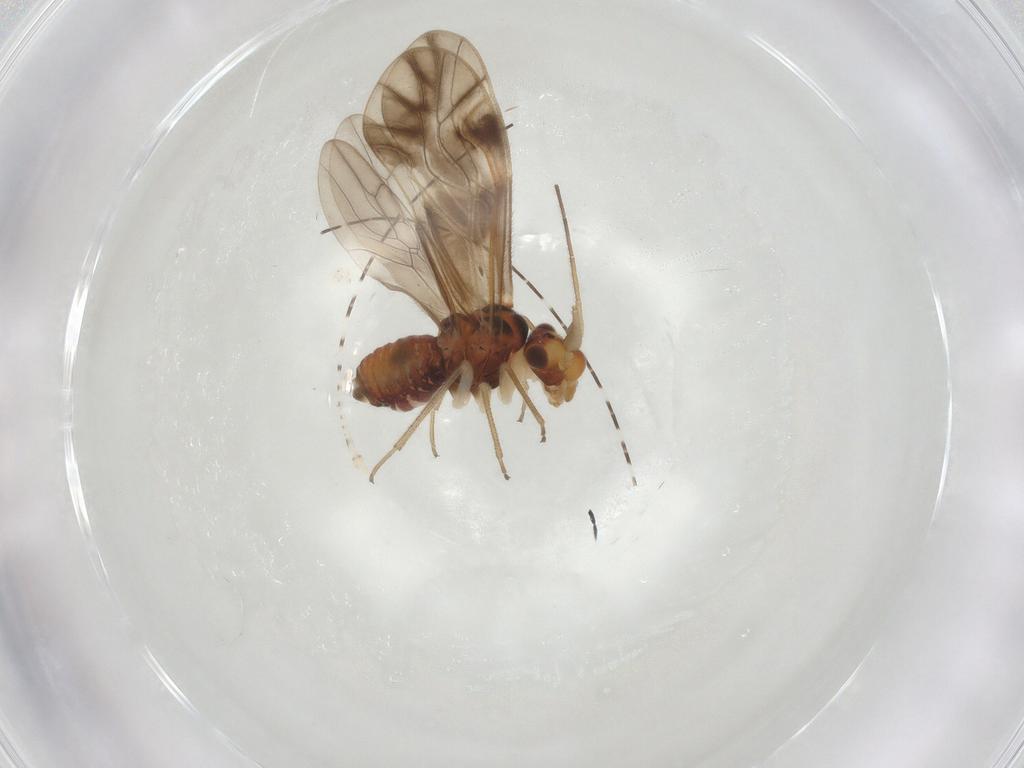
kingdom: Animalia
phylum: Arthropoda
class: Insecta
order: Psocodea
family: Caeciliusidae
